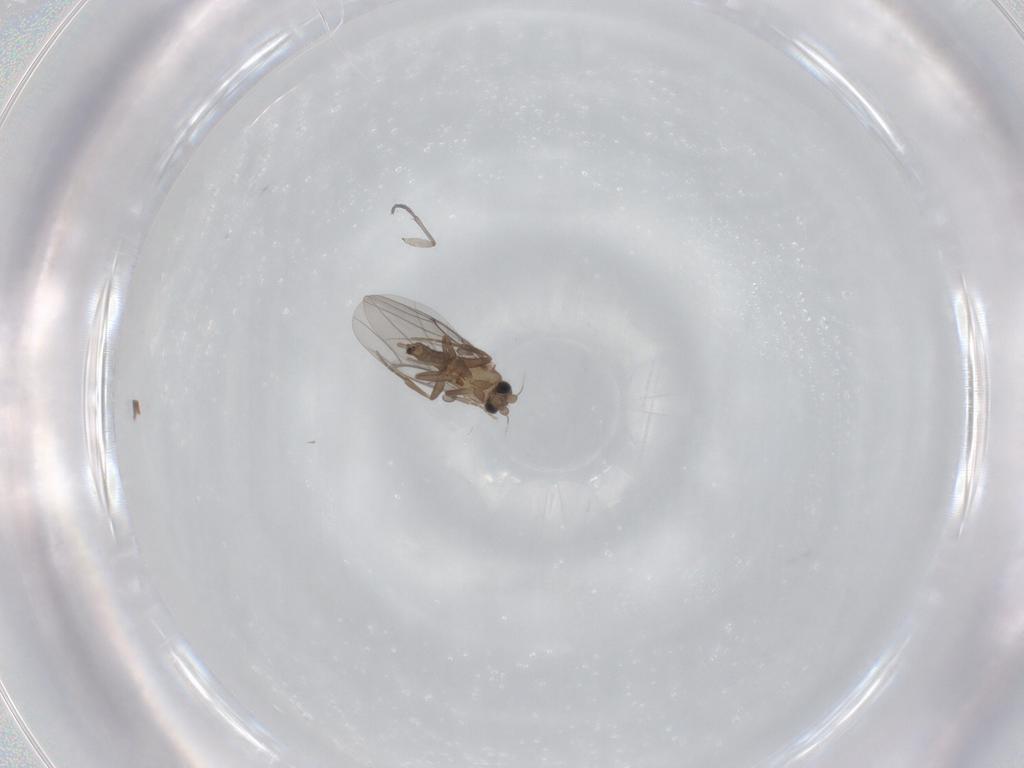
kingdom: Animalia
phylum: Arthropoda
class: Insecta
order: Diptera
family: Sciaridae
